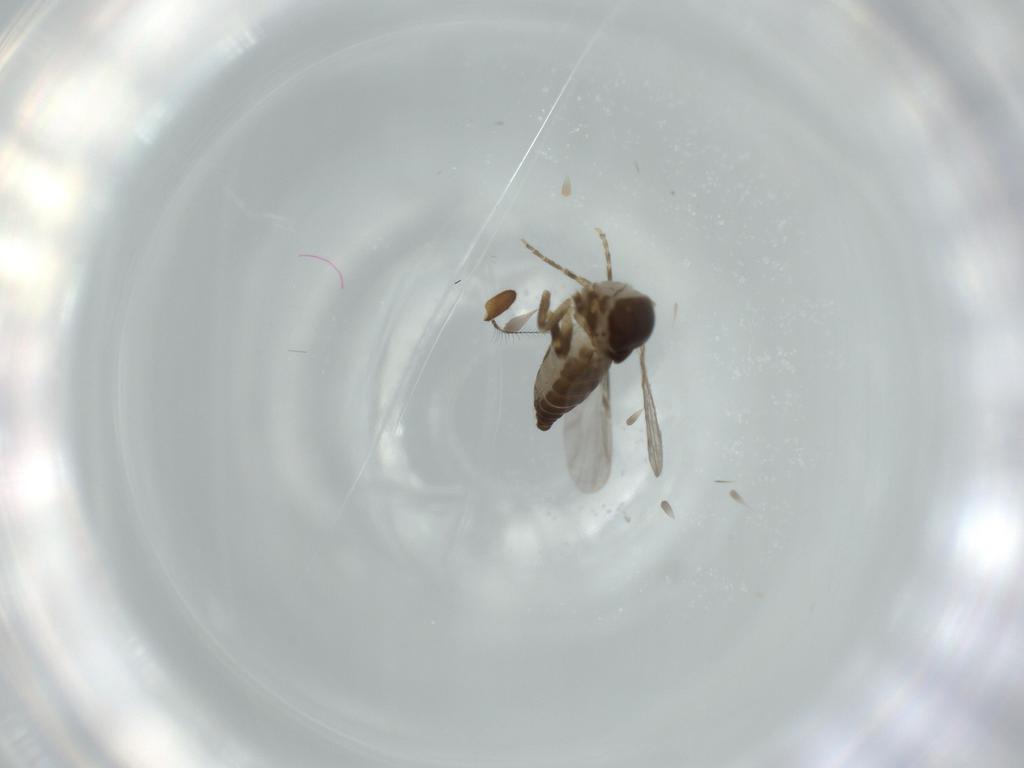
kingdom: Animalia
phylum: Arthropoda
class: Insecta
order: Diptera
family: Ceratopogonidae
